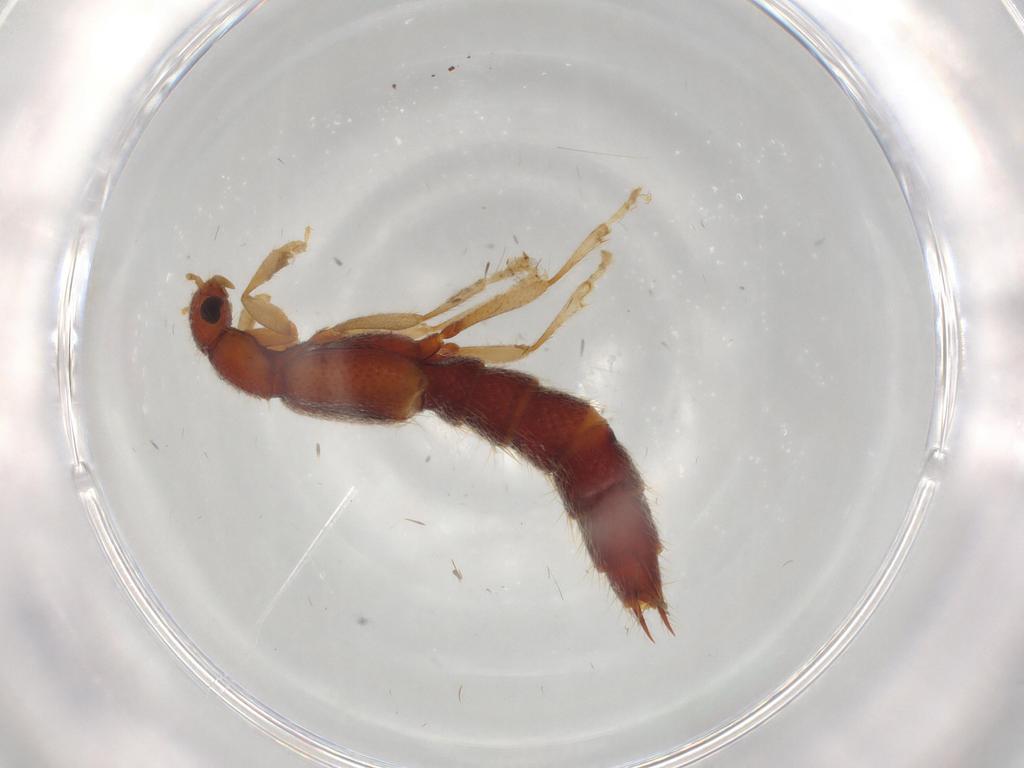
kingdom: Animalia
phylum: Arthropoda
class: Insecta
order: Coleoptera
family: Staphylinidae
